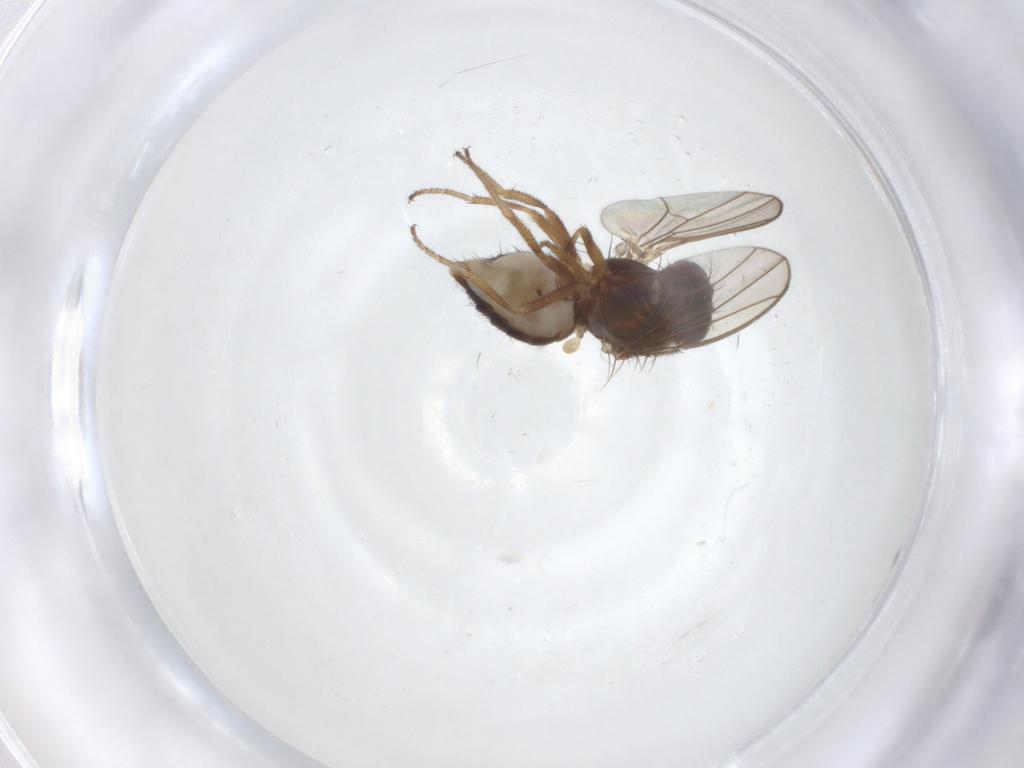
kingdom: Animalia
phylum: Arthropoda
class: Insecta
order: Diptera
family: Drosophilidae
